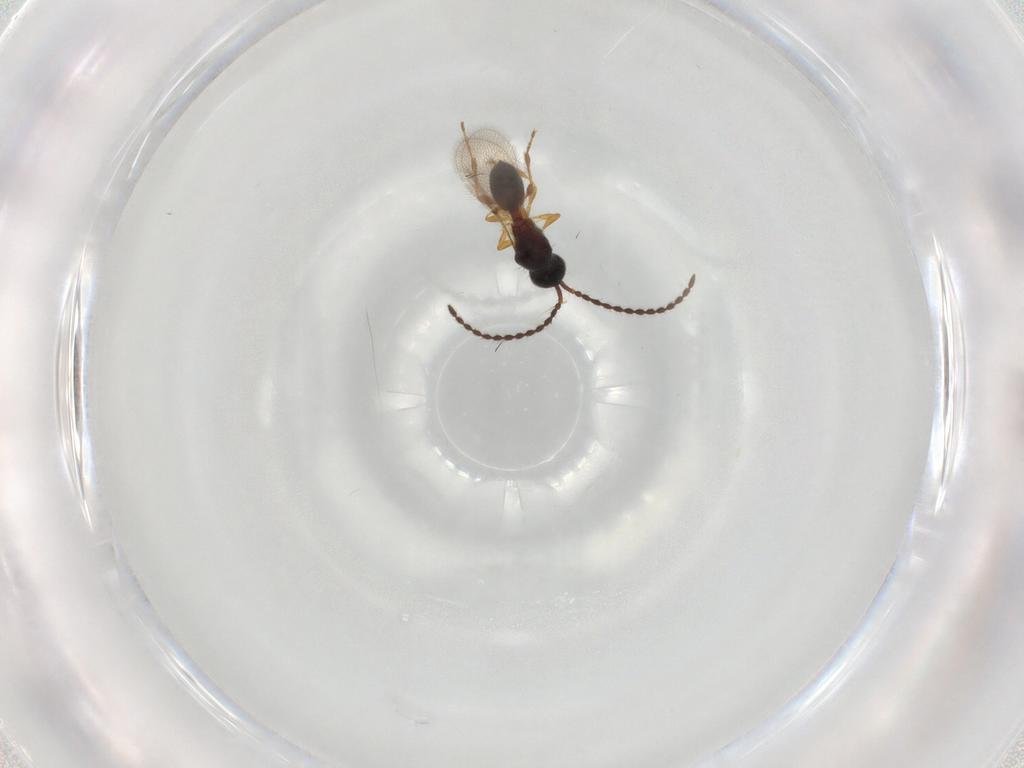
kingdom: Animalia
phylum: Arthropoda
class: Insecta
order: Hymenoptera
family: Diapriidae
